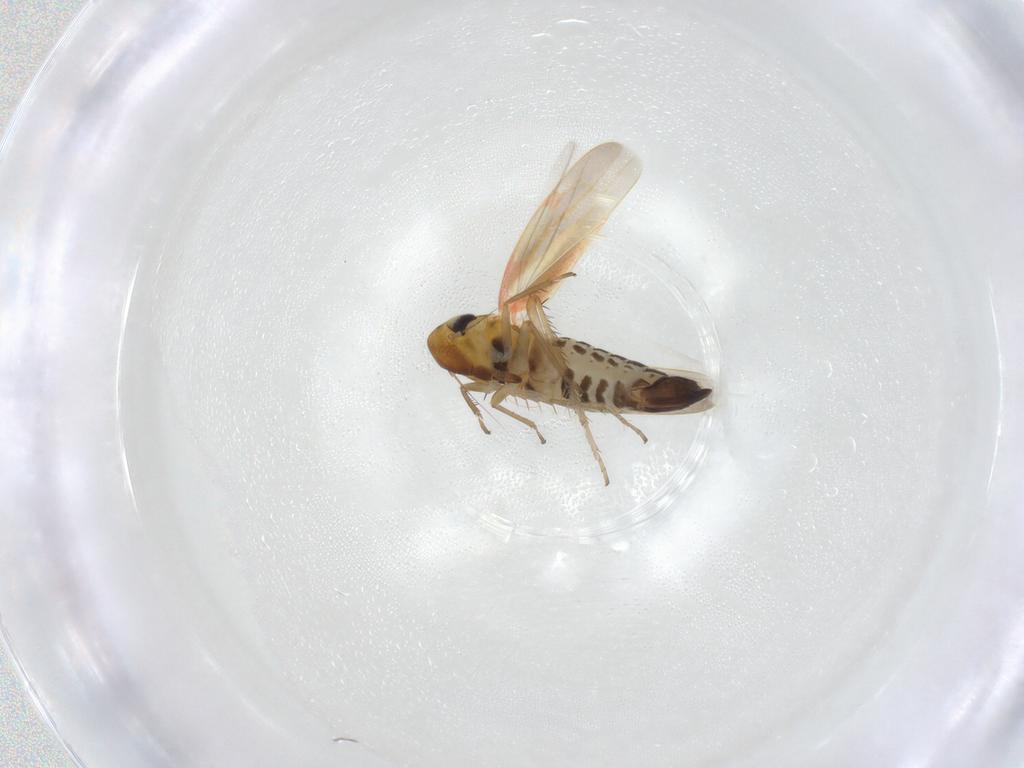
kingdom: Animalia
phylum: Arthropoda
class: Insecta
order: Hemiptera
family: Cicadellidae
